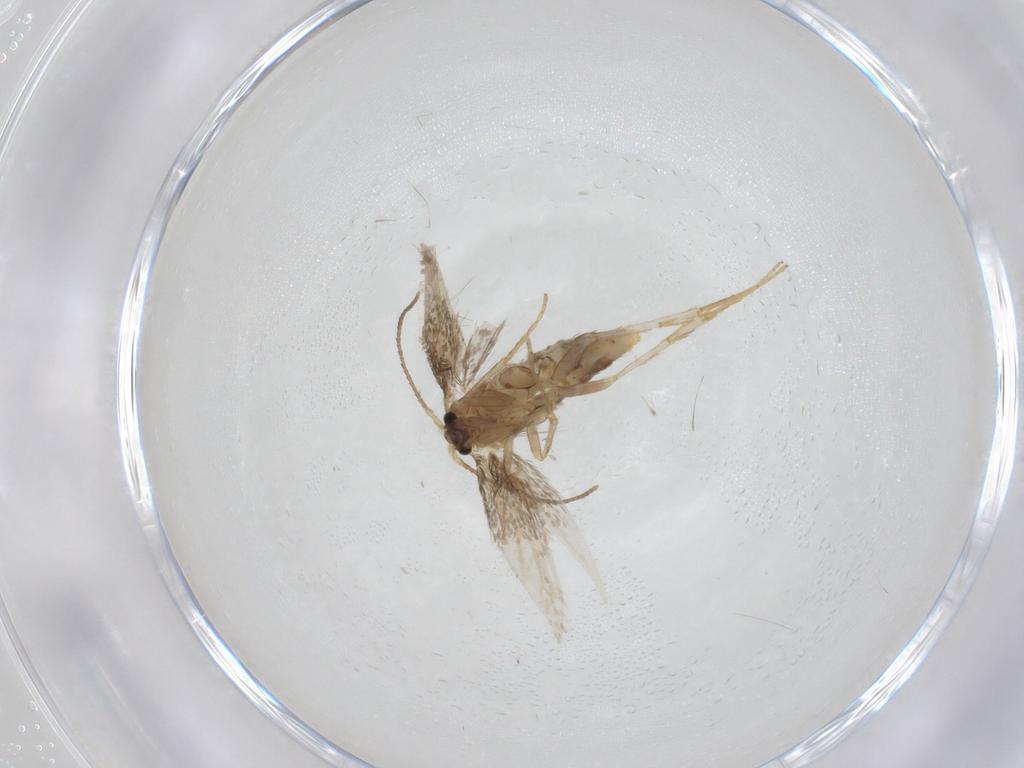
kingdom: Animalia
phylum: Arthropoda
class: Insecta
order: Lepidoptera
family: Nepticulidae
